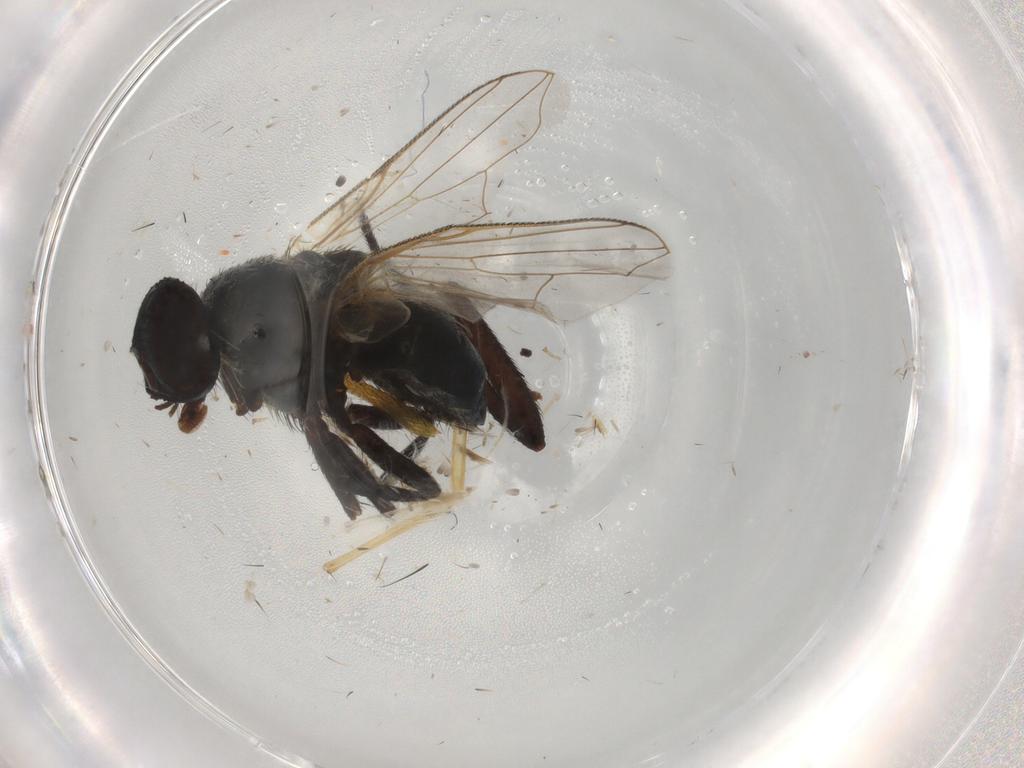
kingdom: Animalia
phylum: Arthropoda
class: Insecta
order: Diptera
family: Muscidae
